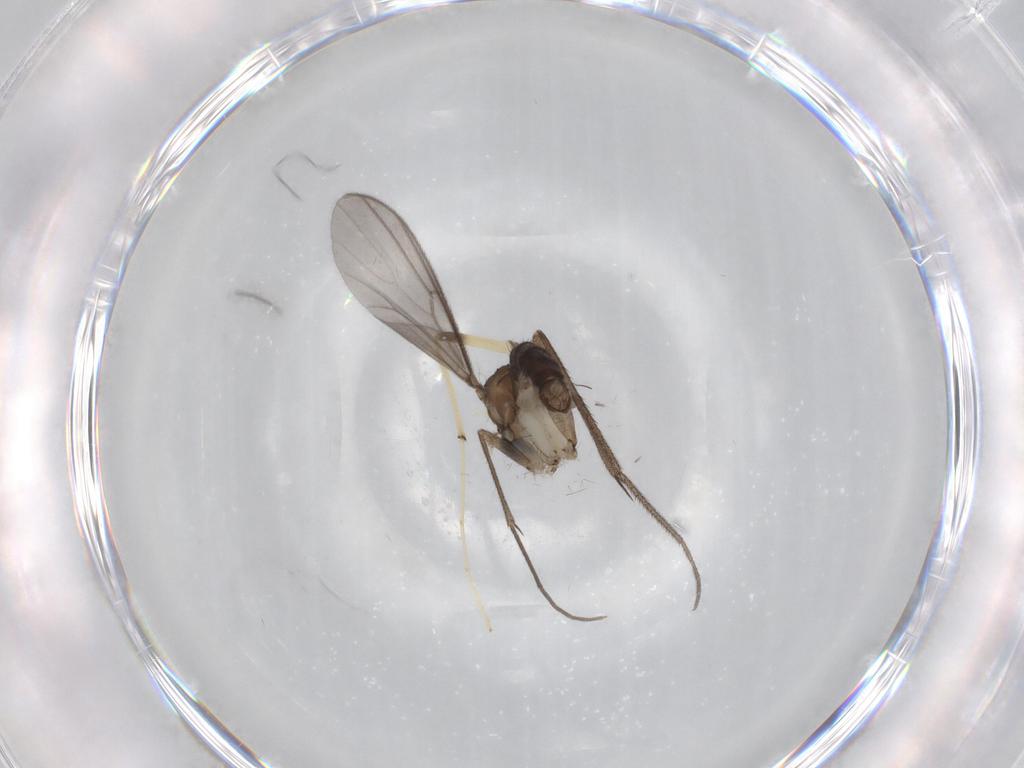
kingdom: Animalia
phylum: Arthropoda
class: Insecta
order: Diptera
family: Mycetophilidae
